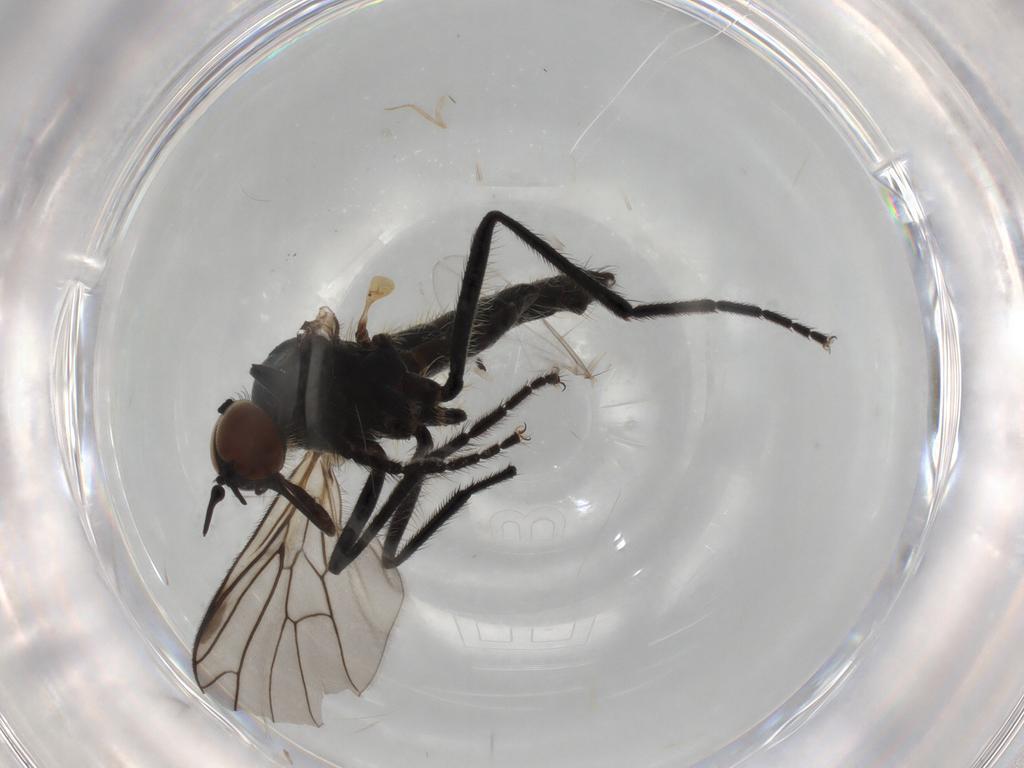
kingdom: Animalia
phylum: Arthropoda
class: Insecta
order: Diptera
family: Empididae
